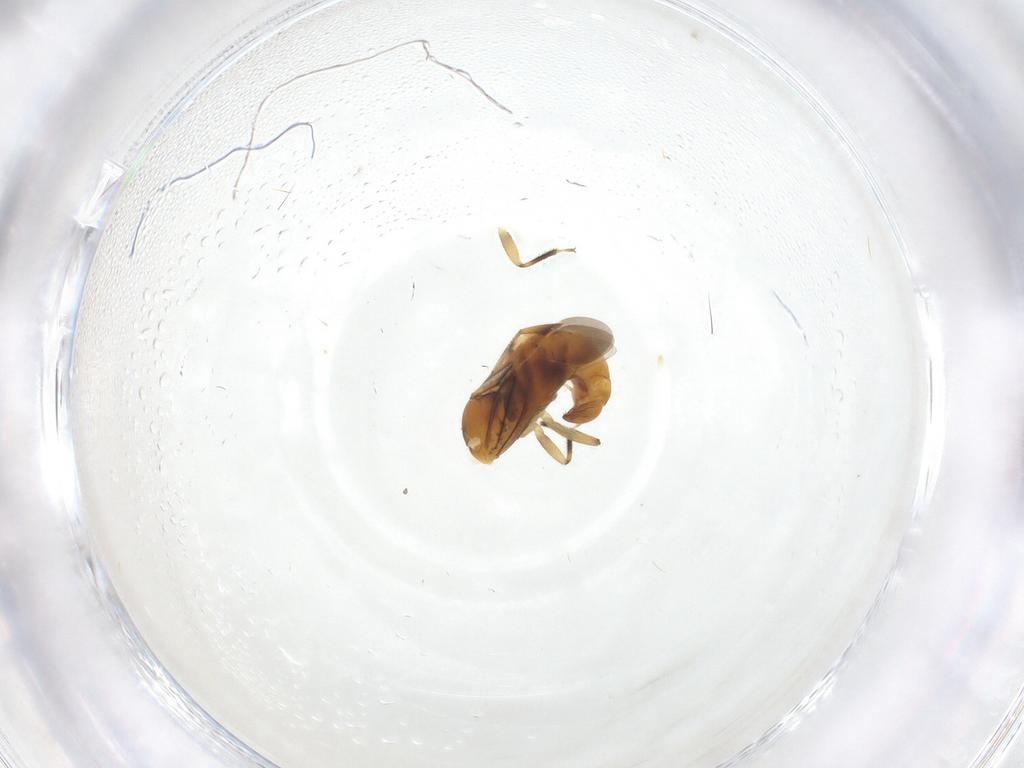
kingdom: Animalia
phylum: Arthropoda
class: Insecta
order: Hemiptera
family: Anthocoridae
